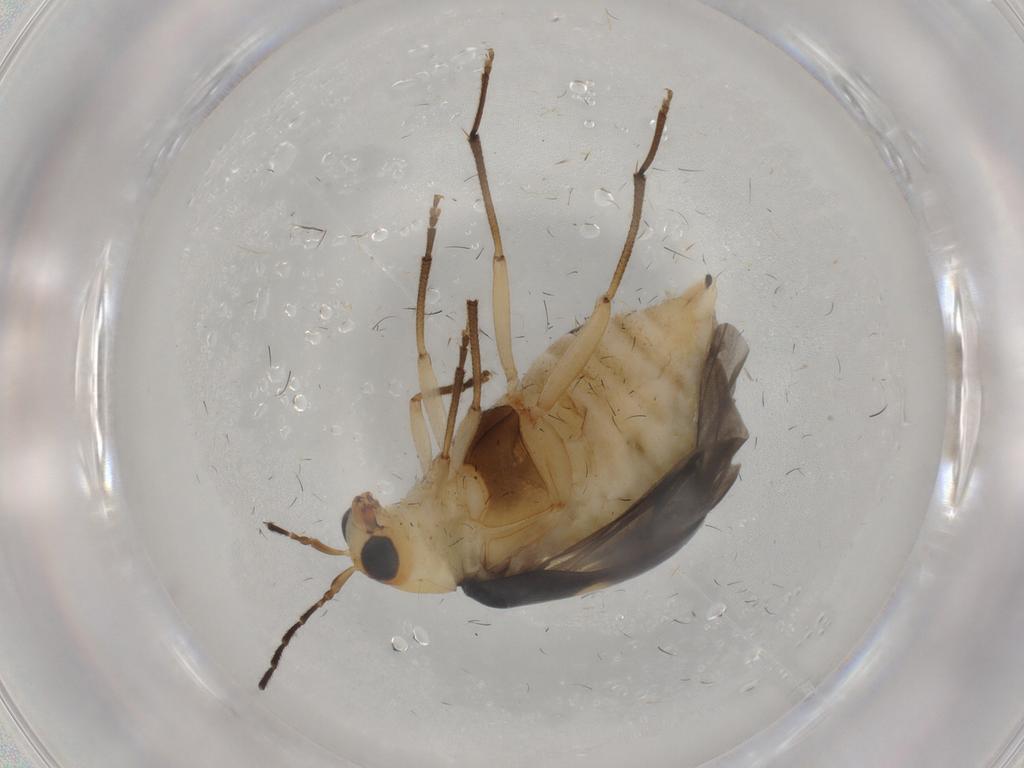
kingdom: Animalia
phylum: Arthropoda
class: Insecta
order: Coleoptera
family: Chrysomelidae
